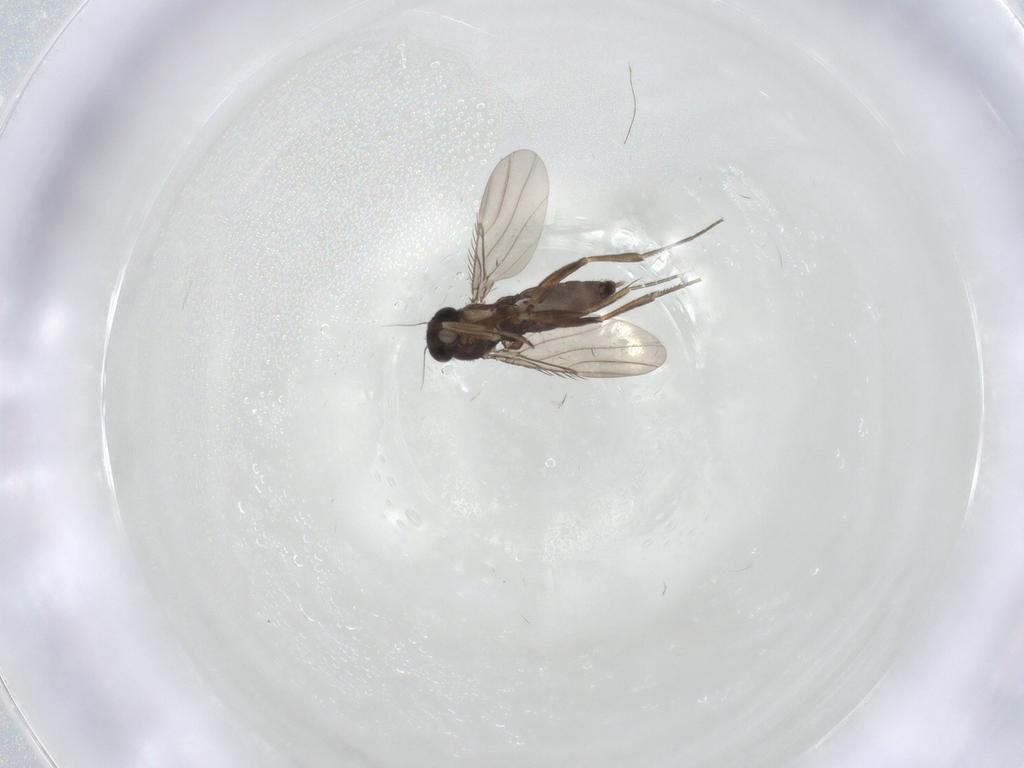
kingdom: Animalia
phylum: Arthropoda
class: Insecta
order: Diptera
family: Phoridae
